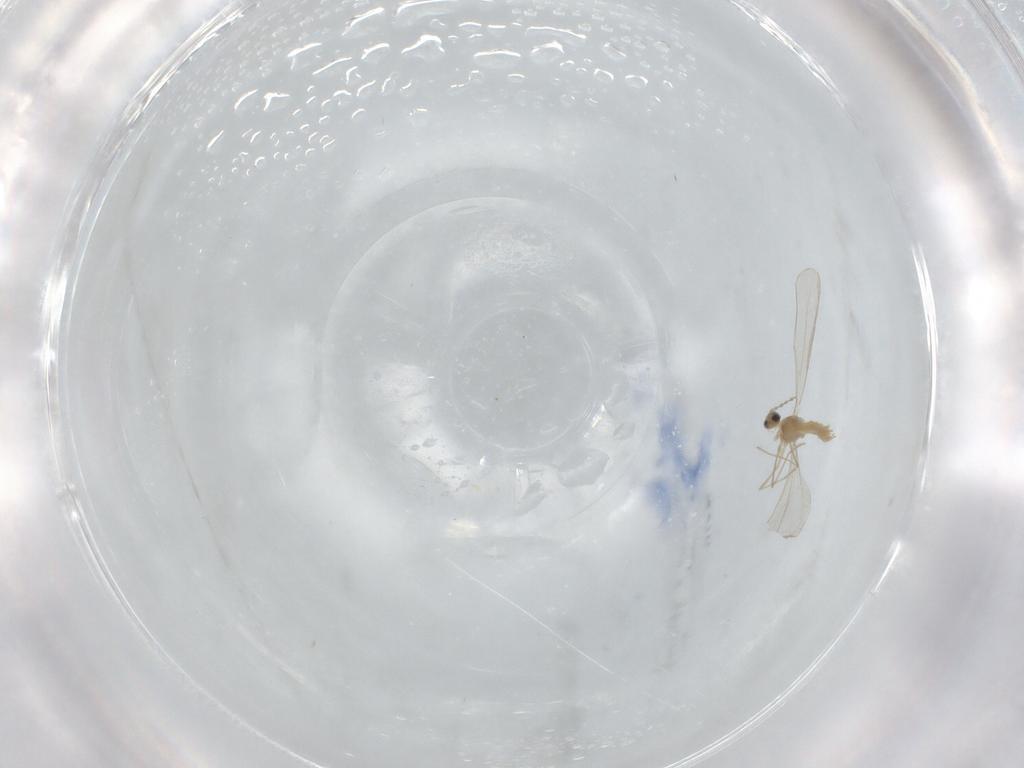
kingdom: Animalia
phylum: Arthropoda
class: Insecta
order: Diptera
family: Cecidomyiidae
